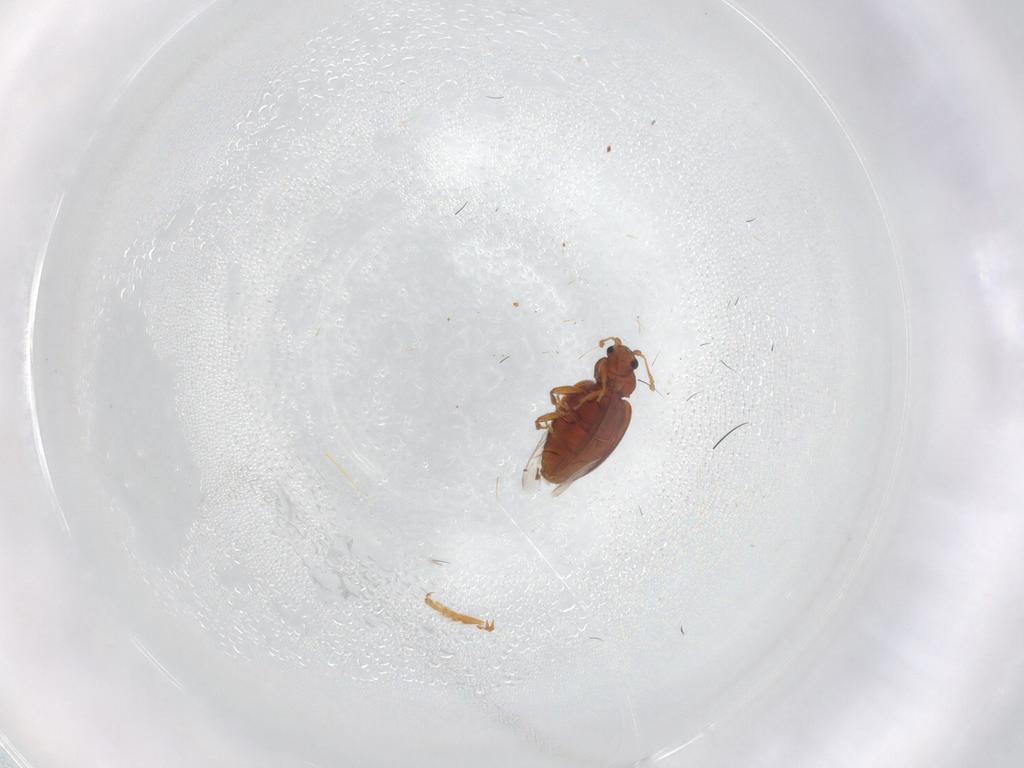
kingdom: Animalia
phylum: Arthropoda
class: Insecta
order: Coleoptera
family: Latridiidae
